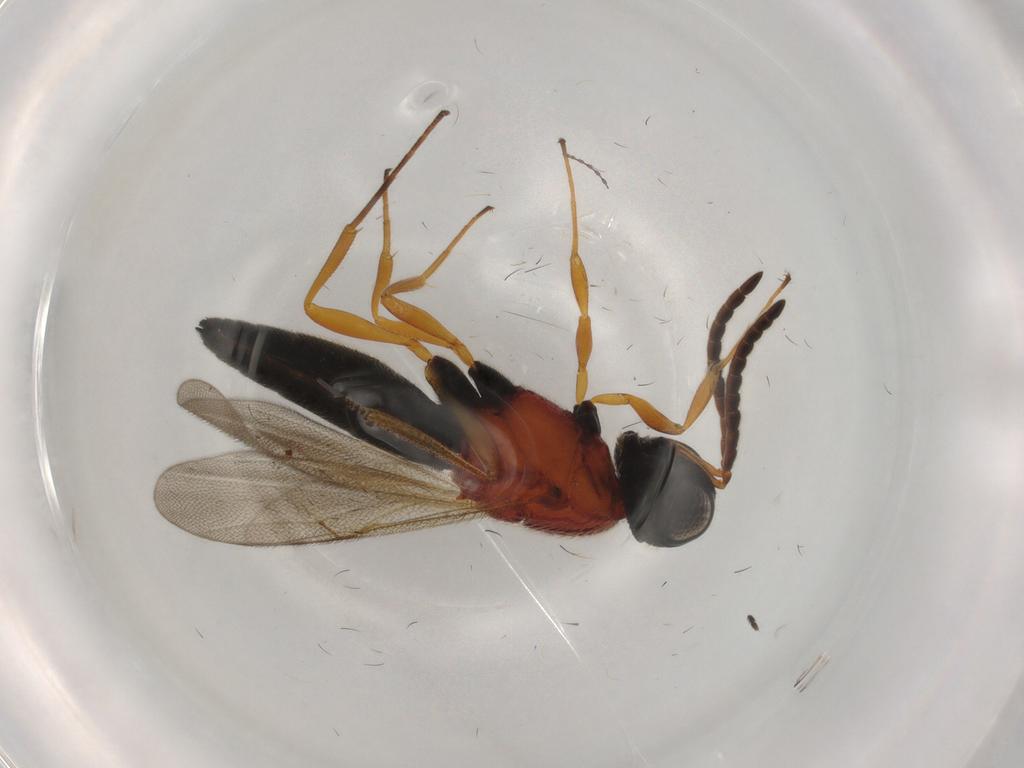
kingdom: Animalia
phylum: Arthropoda
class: Insecta
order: Hymenoptera
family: Scelionidae
